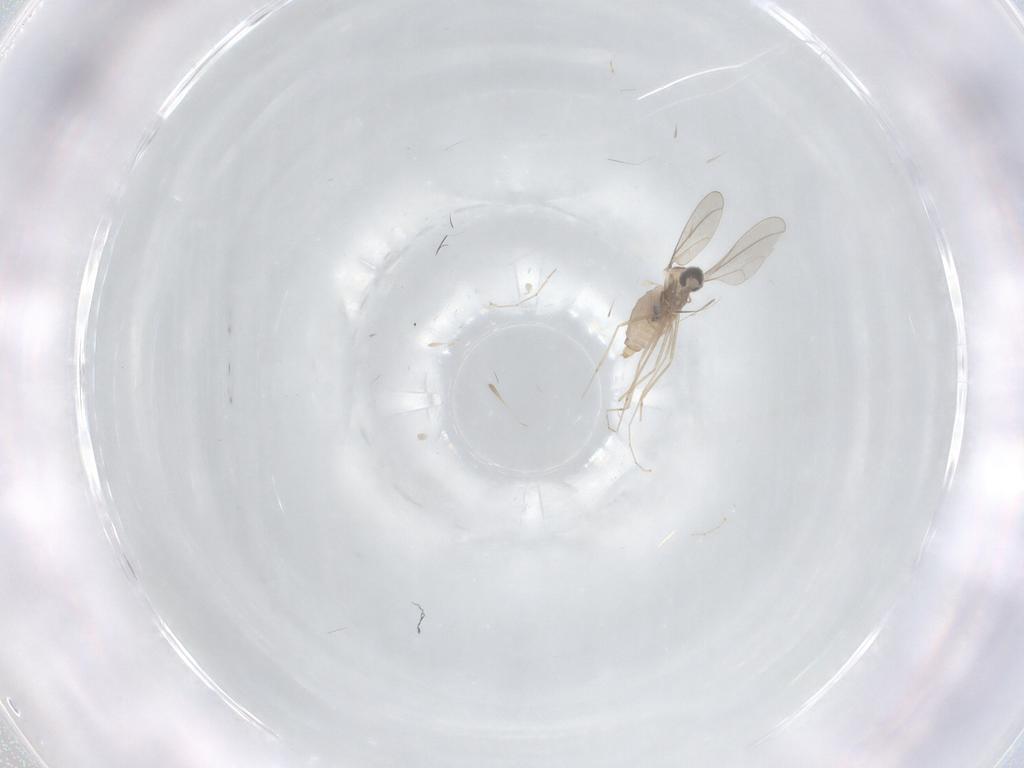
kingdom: Animalia
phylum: Arthropoda
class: Insecta
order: Diptera
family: Cecidomyiidae
